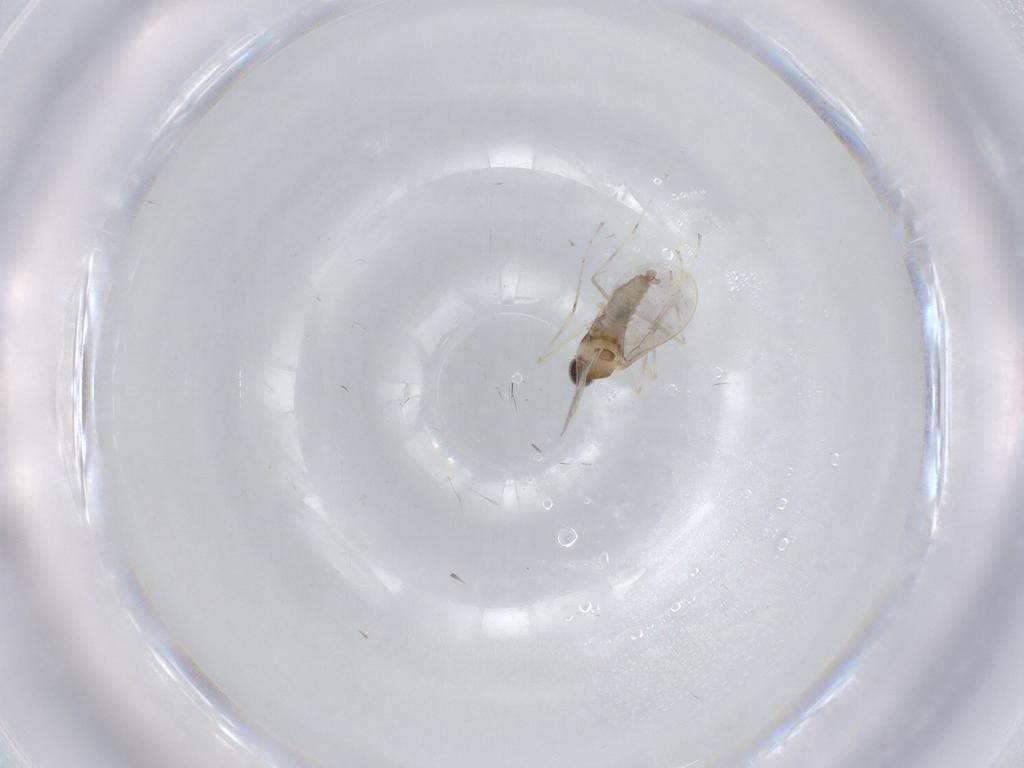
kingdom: Animalia
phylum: Arthropoda
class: Insecta
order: Diptera
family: Cecidomyiidae
